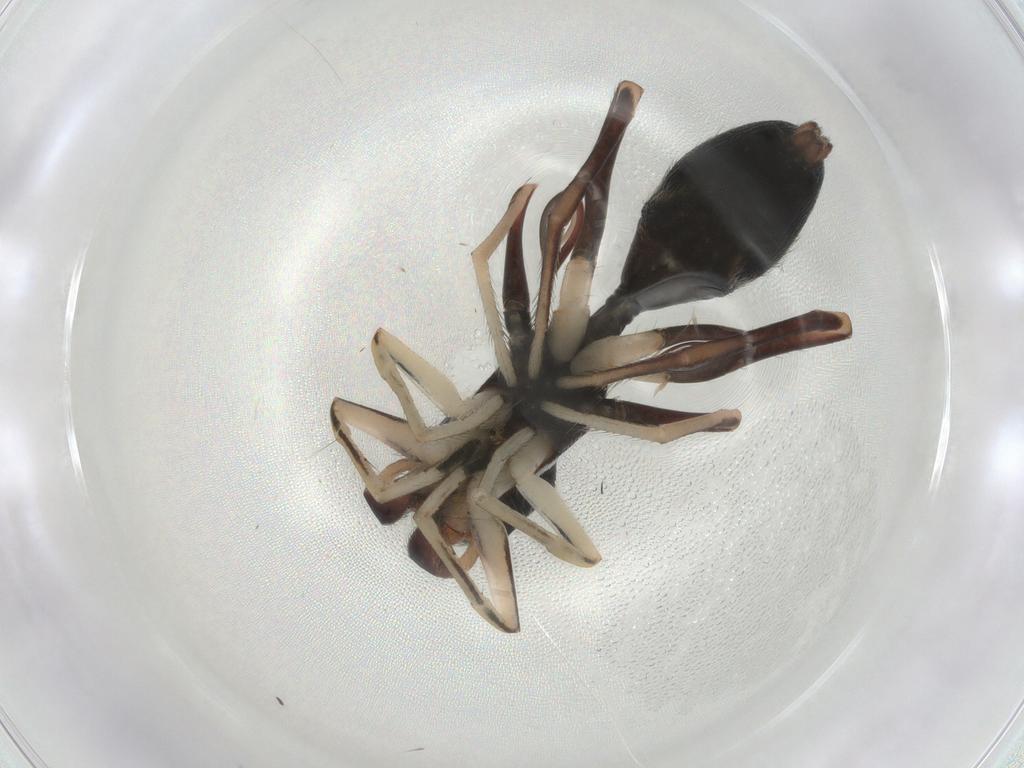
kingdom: Animalia
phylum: Arthropoda
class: Arachnida
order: Araneae
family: Salticidae
